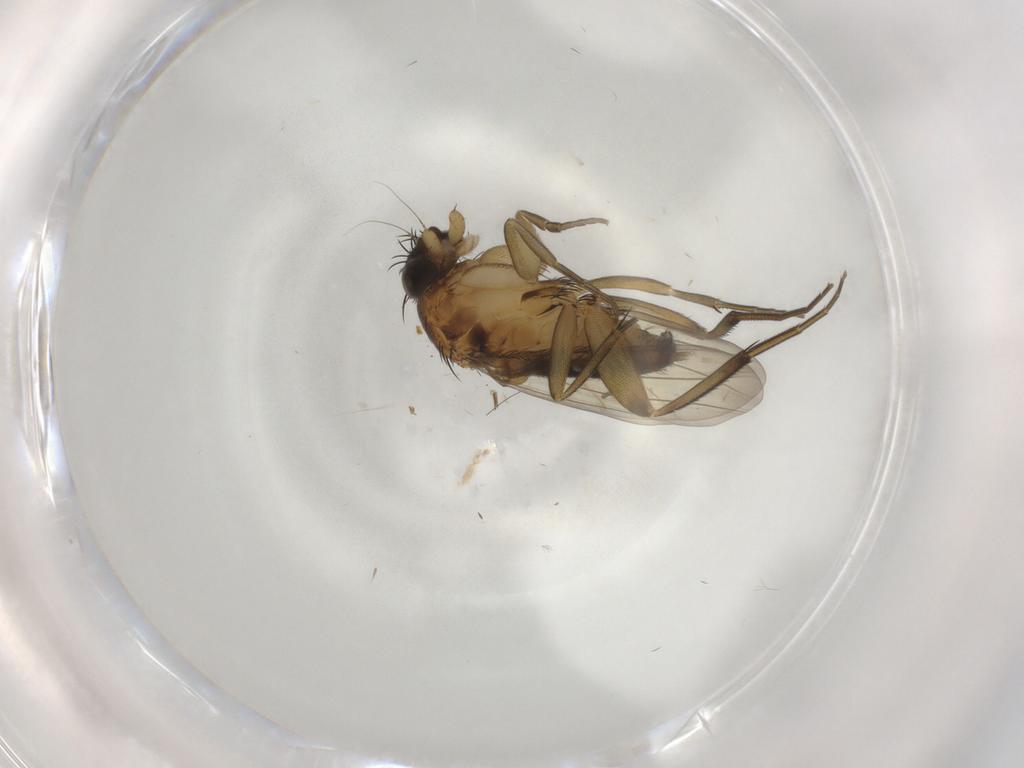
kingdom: Animalia
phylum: Arthropoda
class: Insecta
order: Diptera
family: Phoridae
